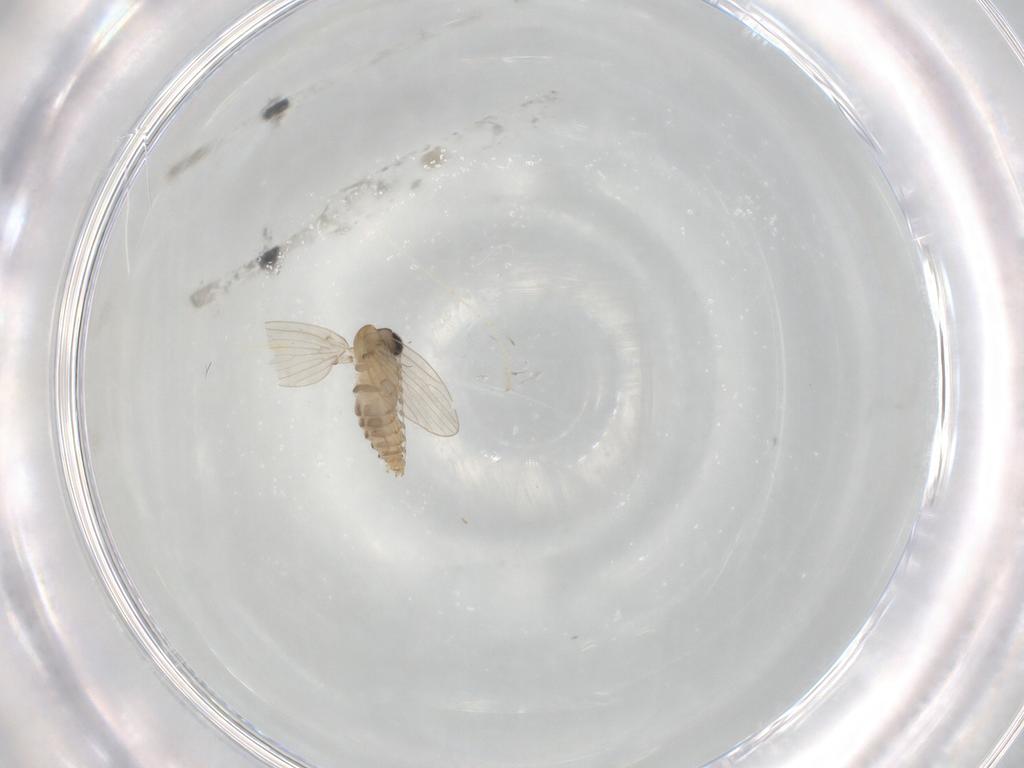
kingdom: Animalia
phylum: Arthropoda
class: Insecta
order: Diptera
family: Psychodidae
